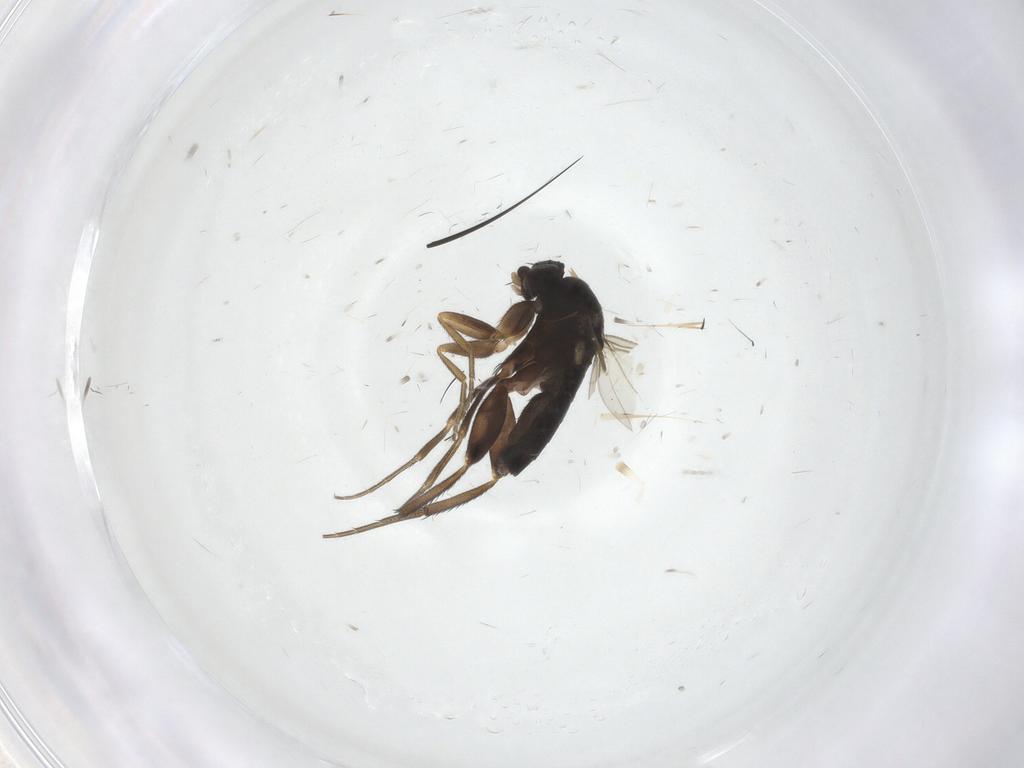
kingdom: Animalia
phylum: Arthropoda
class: Insecta
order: Diptera
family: Phoridae
